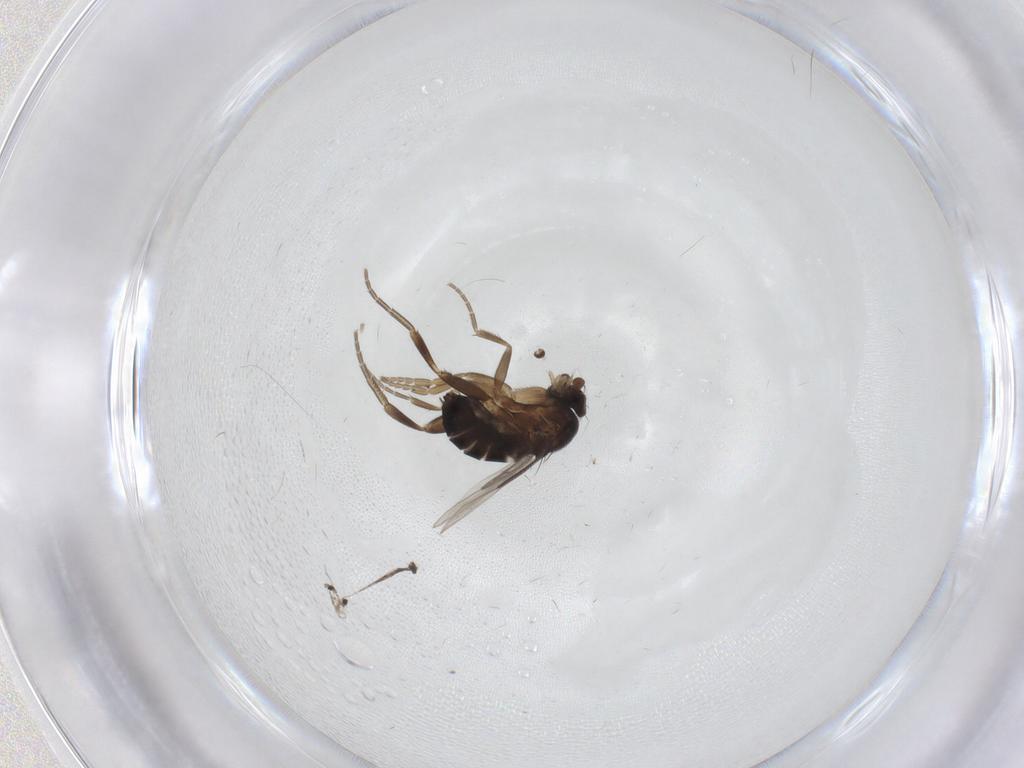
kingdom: Animalia
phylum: Arthropoda
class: Insecta
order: Diptera
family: Phoridae
